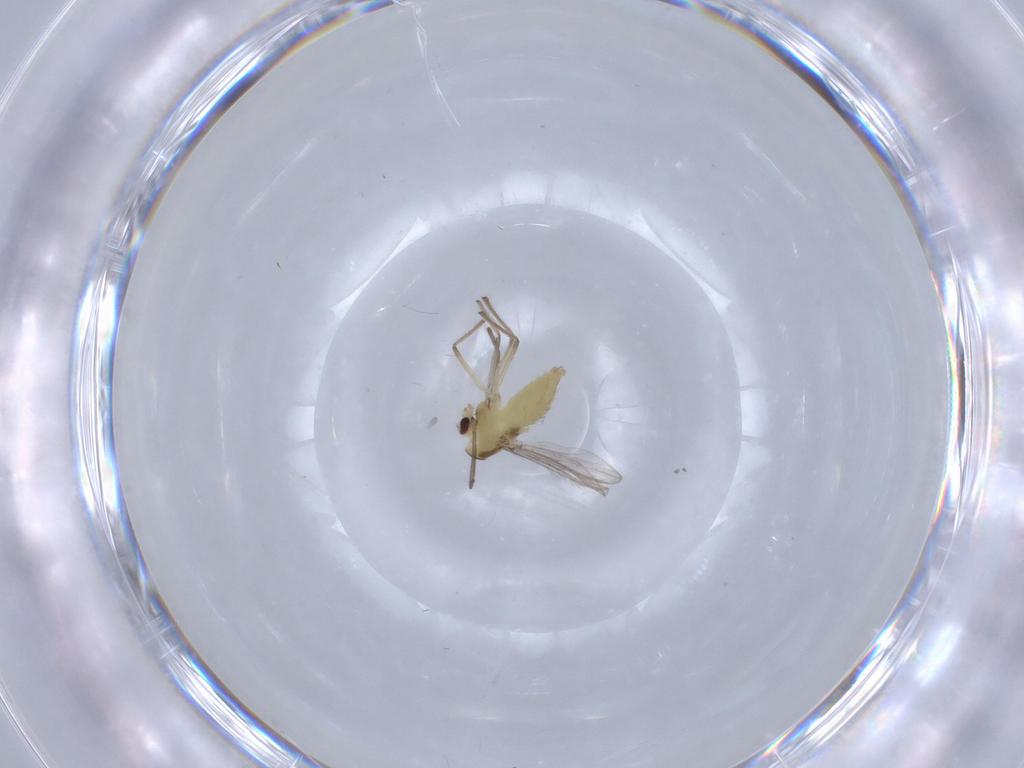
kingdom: Animalia
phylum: Arthropoda
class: Insecta
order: Diptera
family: Chironomidae
